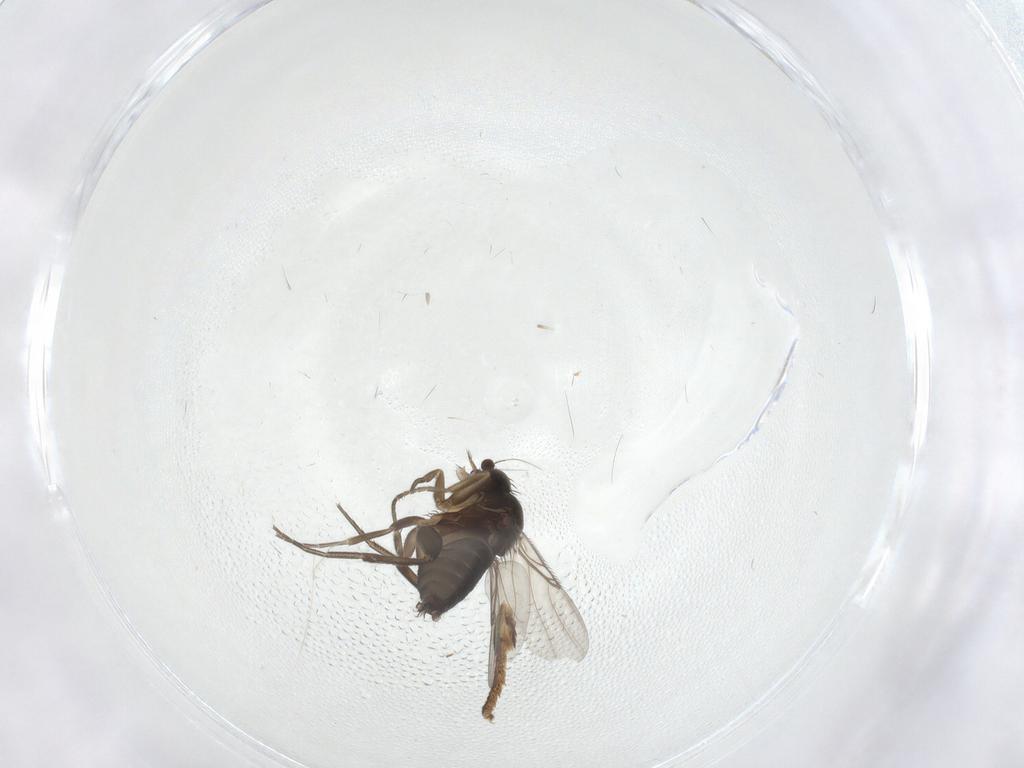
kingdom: Animalia
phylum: Arthropoda
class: Insecta
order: Diptera
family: Phoridae
